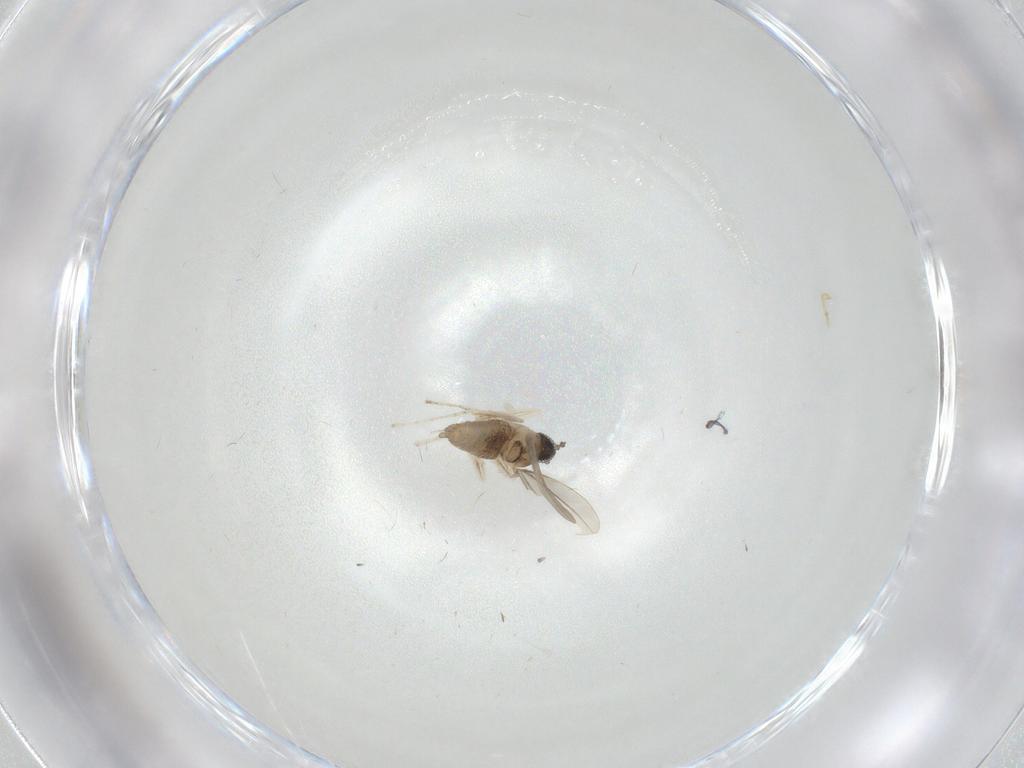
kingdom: Animalia
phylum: Arthropoda
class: Insecta
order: Diptera
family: Cecidomyiidae
